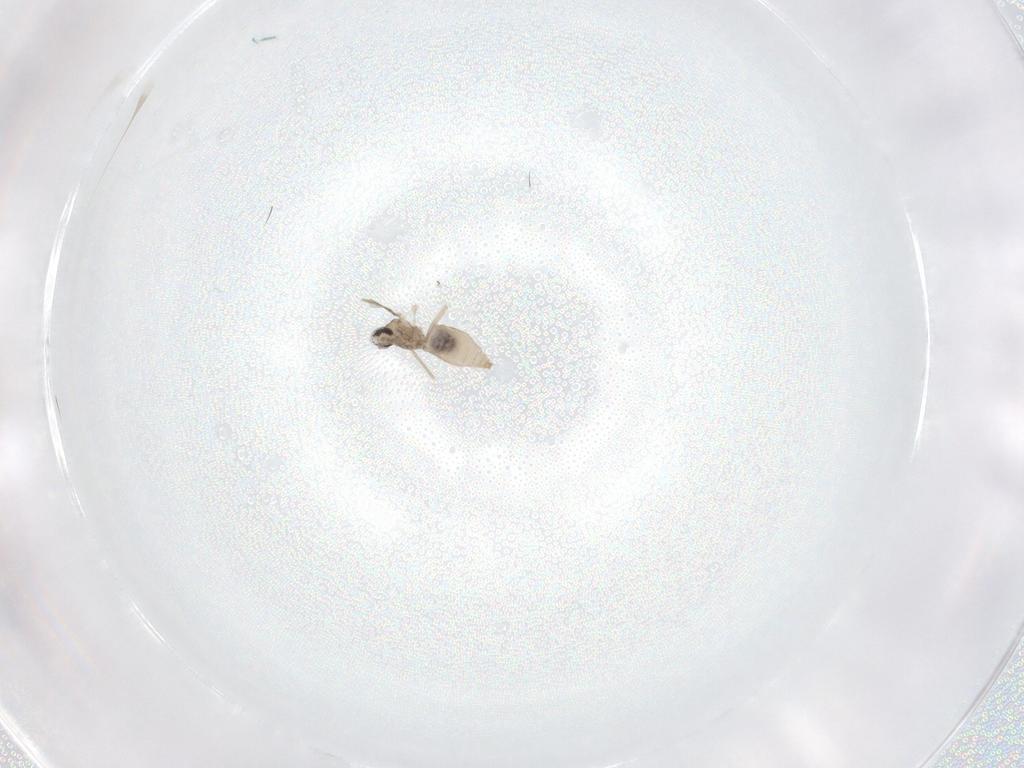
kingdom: Animalia
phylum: Arthropoda
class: Insecta
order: Diptera
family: Cecidomyiidae
